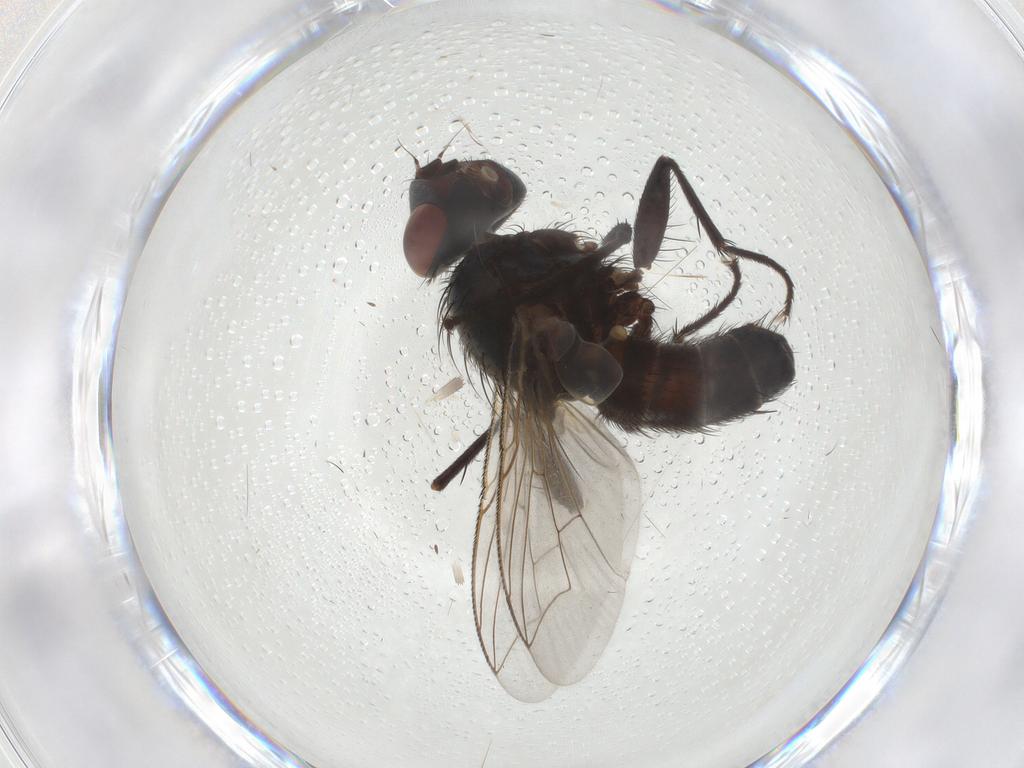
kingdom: Animalia
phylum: Arthropoda
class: Insecta
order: Diptera
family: Sarcophagidae
